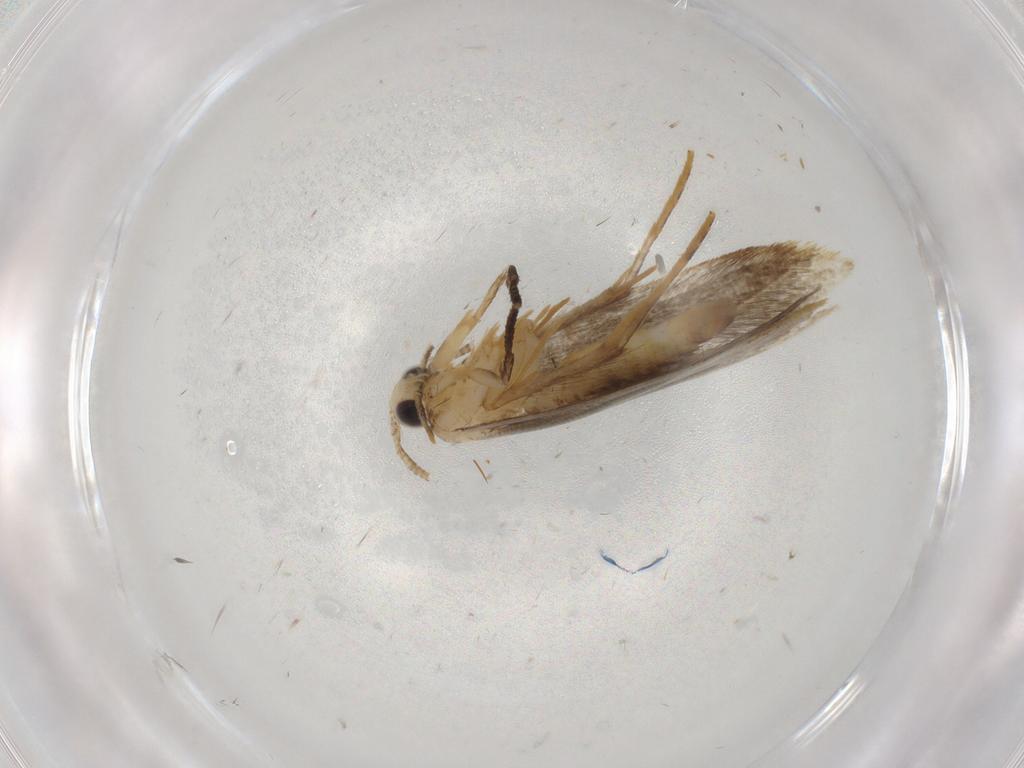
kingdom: Animalia
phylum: Arthropoda
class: Insecta
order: Lepidoptera
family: Tineidae
